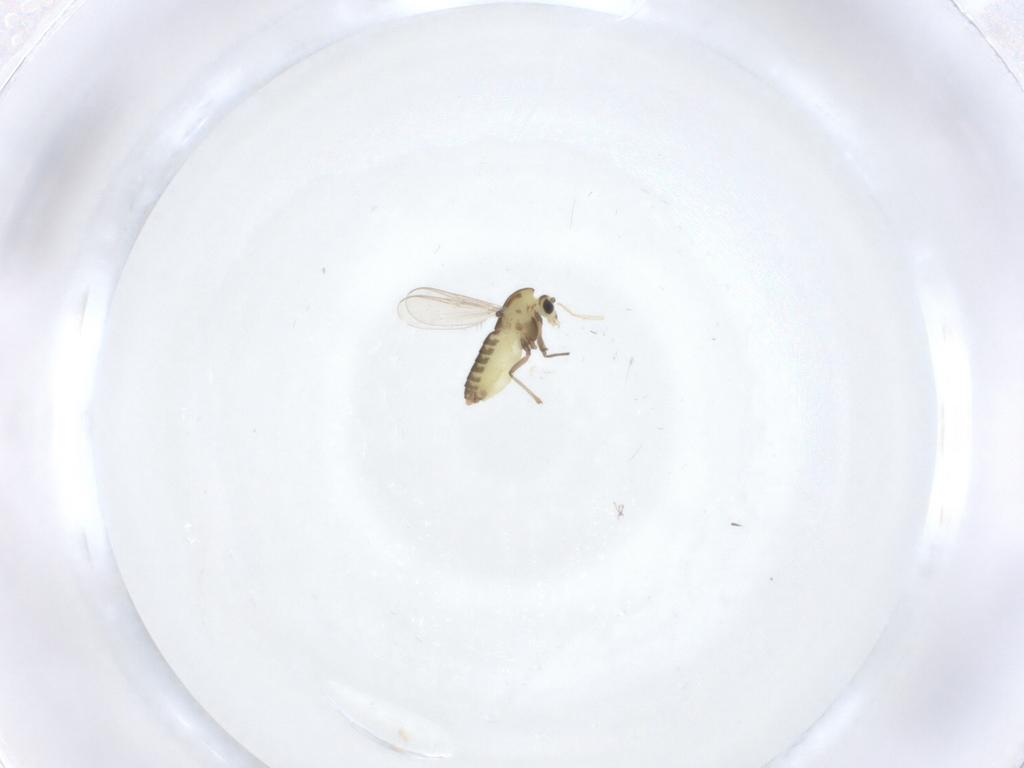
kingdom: Animalia
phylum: Arthropoda
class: Insecta
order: Diptera
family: Chironomidae
